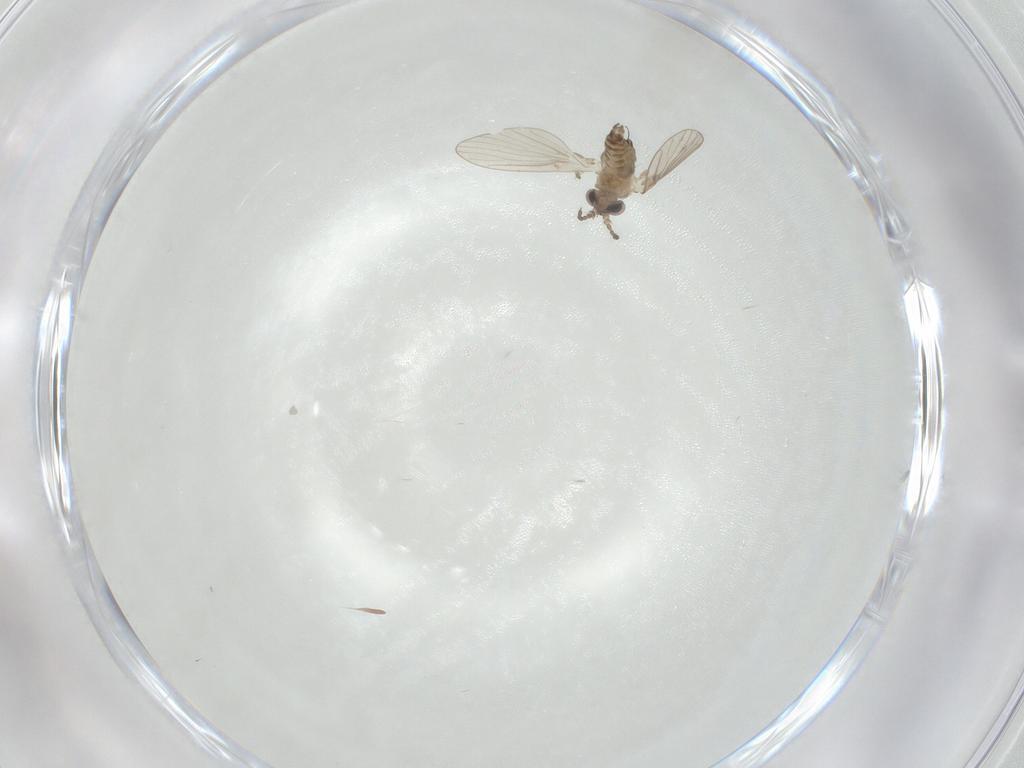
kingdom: Animalia
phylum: Arthropoda
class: Insecta
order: Diptera
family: Psychodidae
